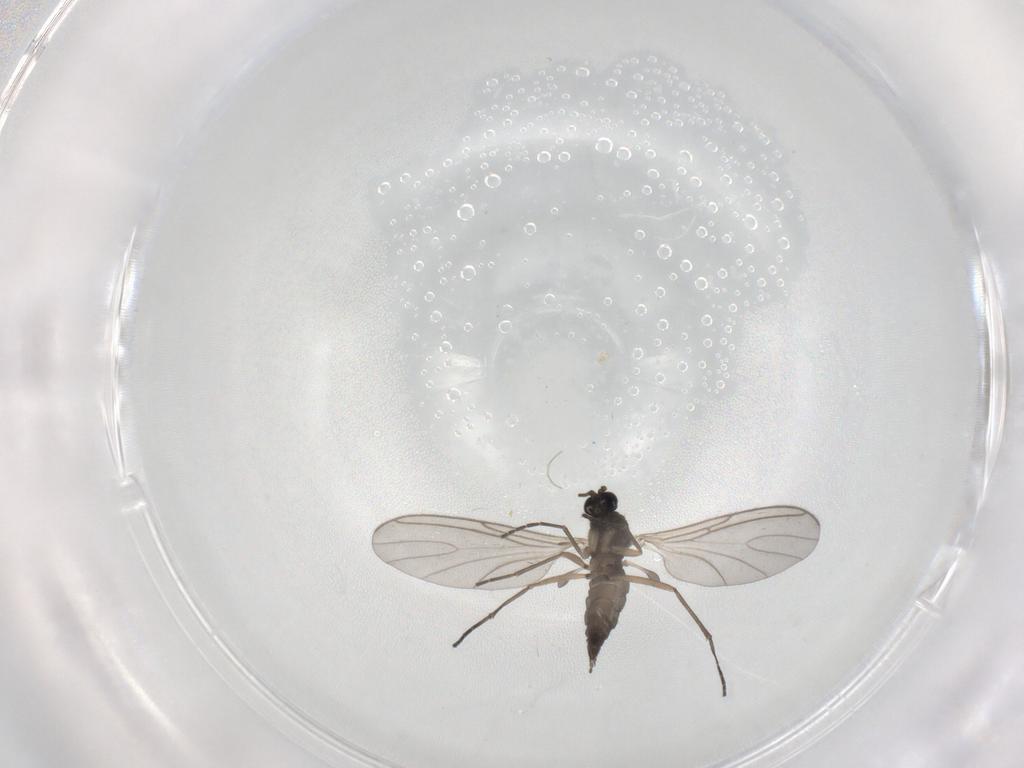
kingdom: Animalia
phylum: Arthropoda
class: Insecta
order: Diptera
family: Sciaridae
